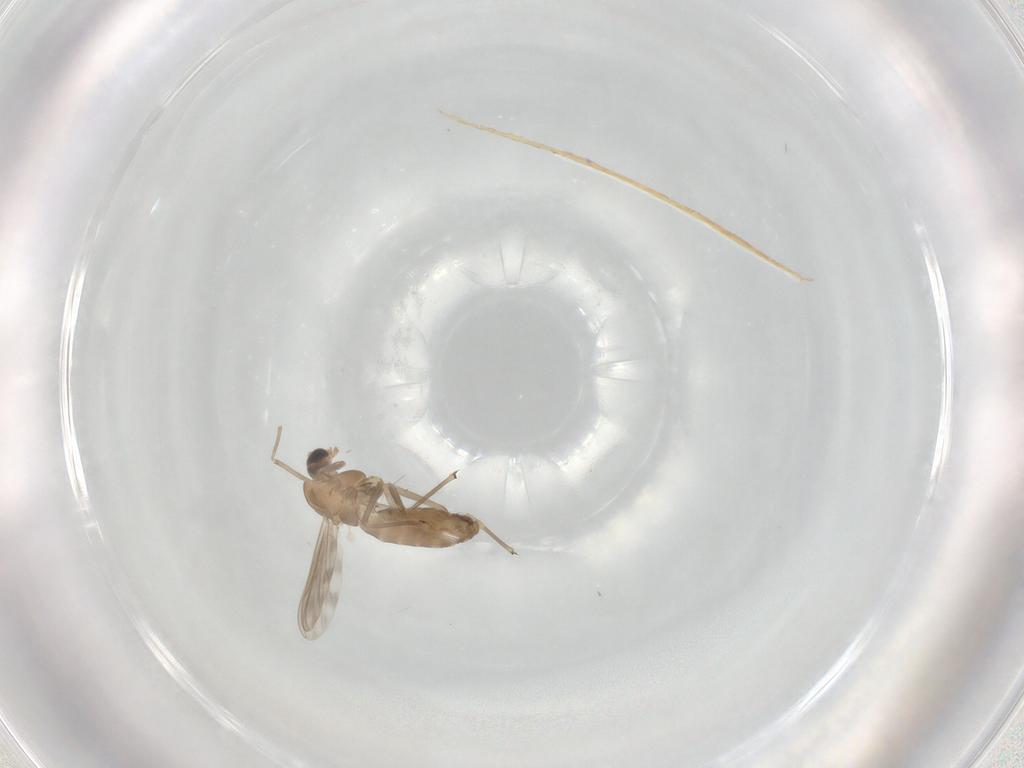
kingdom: Animalia
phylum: Arthropoda
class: Insecta
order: Diptera
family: Chironomidae
